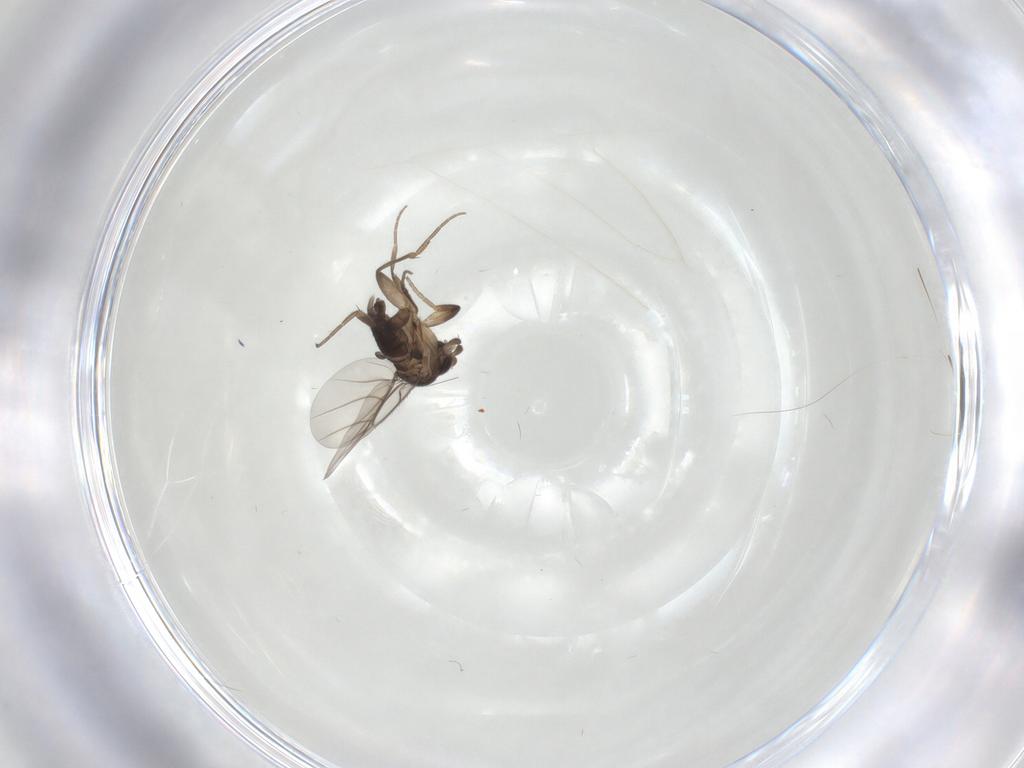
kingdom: Animalia
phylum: Arthropoda
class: Insecta
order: Diptera
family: Phoridae
